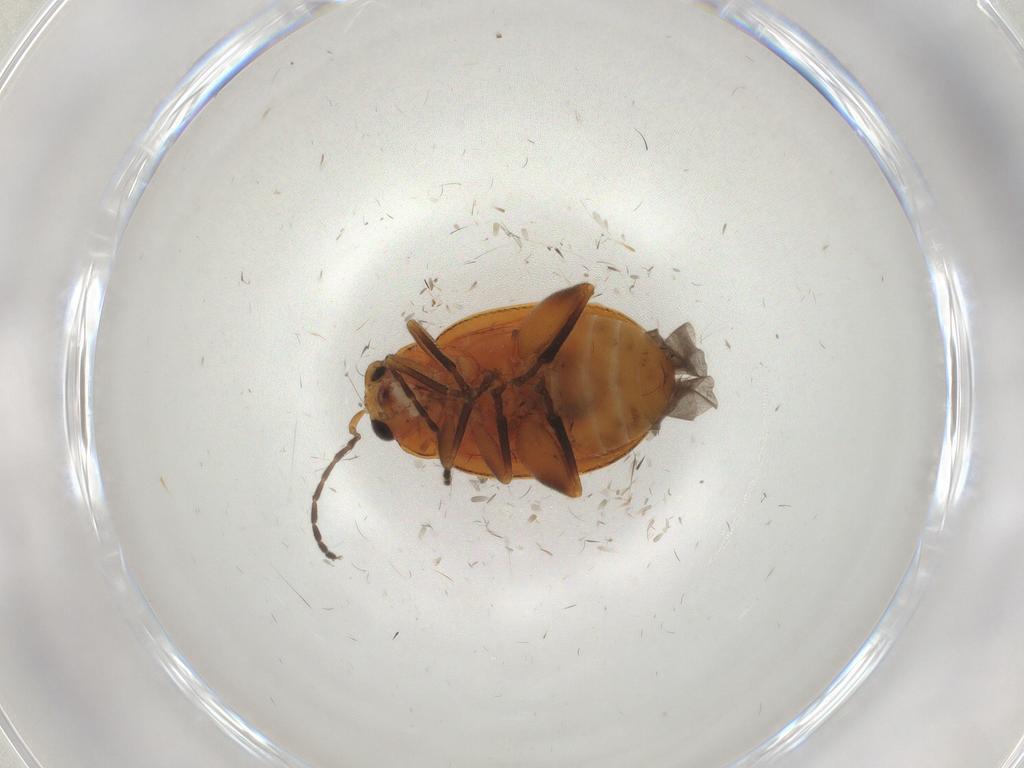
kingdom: Animalia
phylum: Arthropoda
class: Insecta
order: Coleoptera
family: Chrysomelidae
